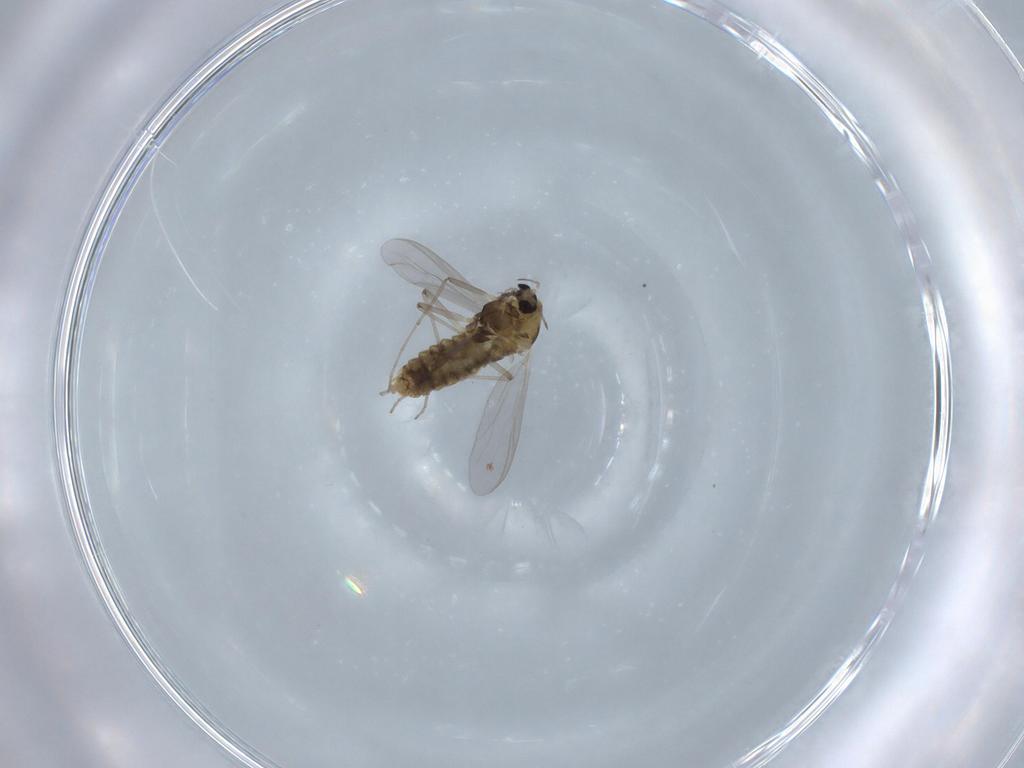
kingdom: Animalia
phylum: Arthropoda
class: Insecta
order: Diptera
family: Chironomidae
